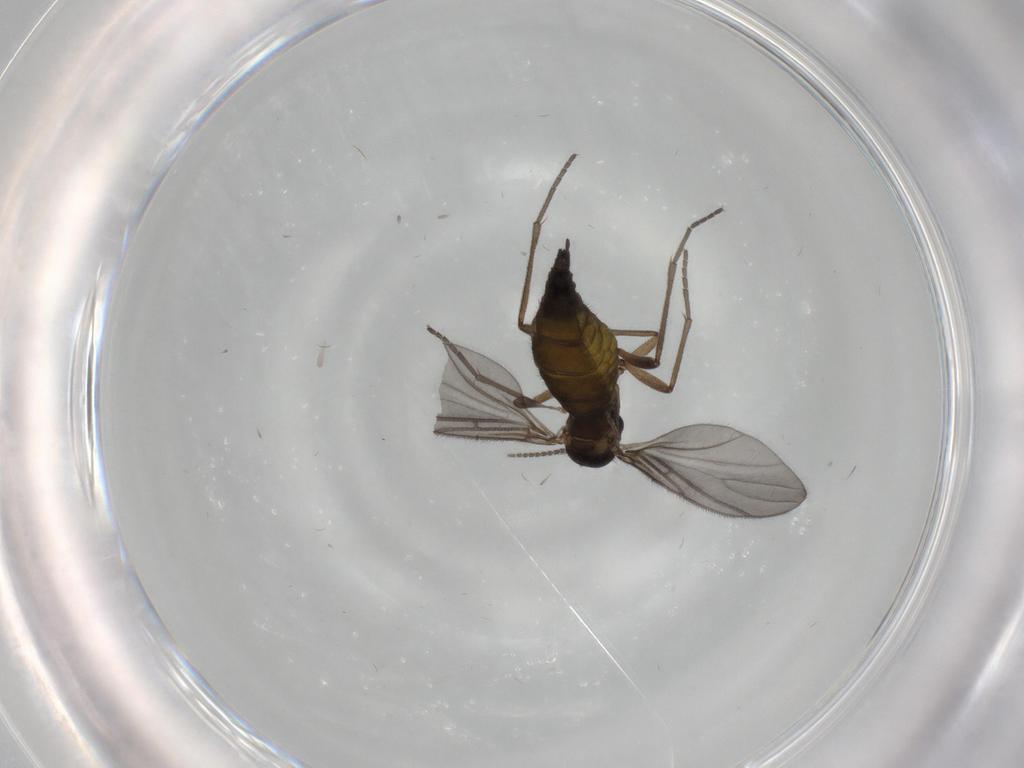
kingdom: Animalia
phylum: Arthropoda
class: Insecta
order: Diptera
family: Sciaridae
